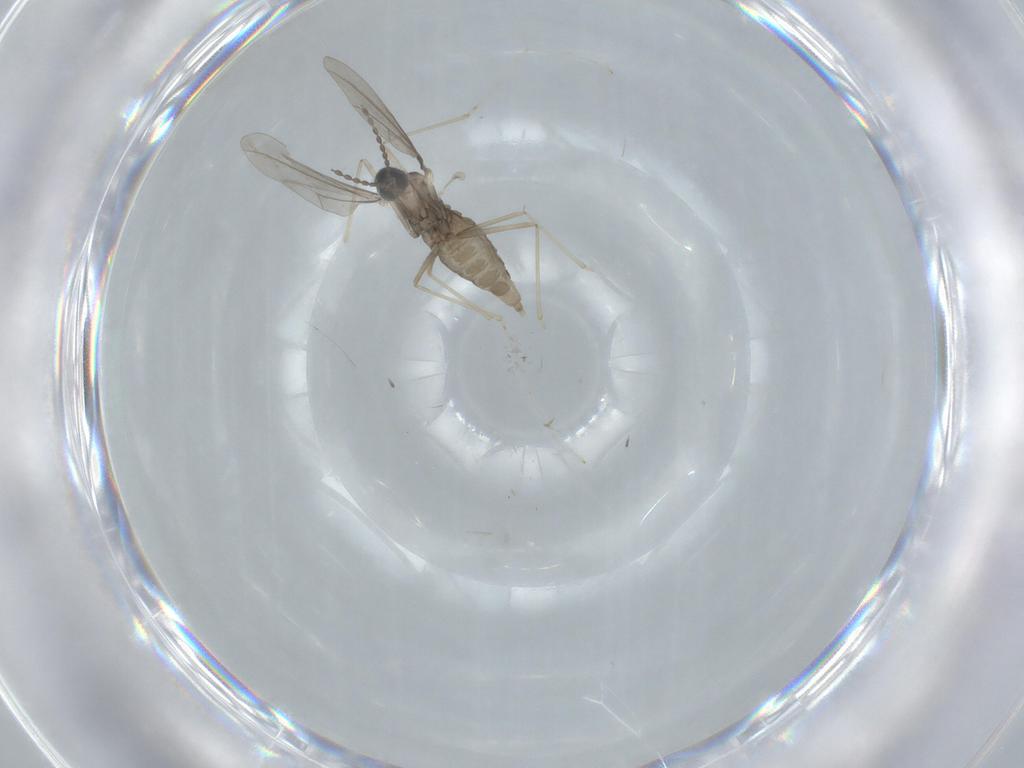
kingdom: Animalia
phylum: Arthropoda
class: Insecta
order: Diptera
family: Cecidomyiidae
